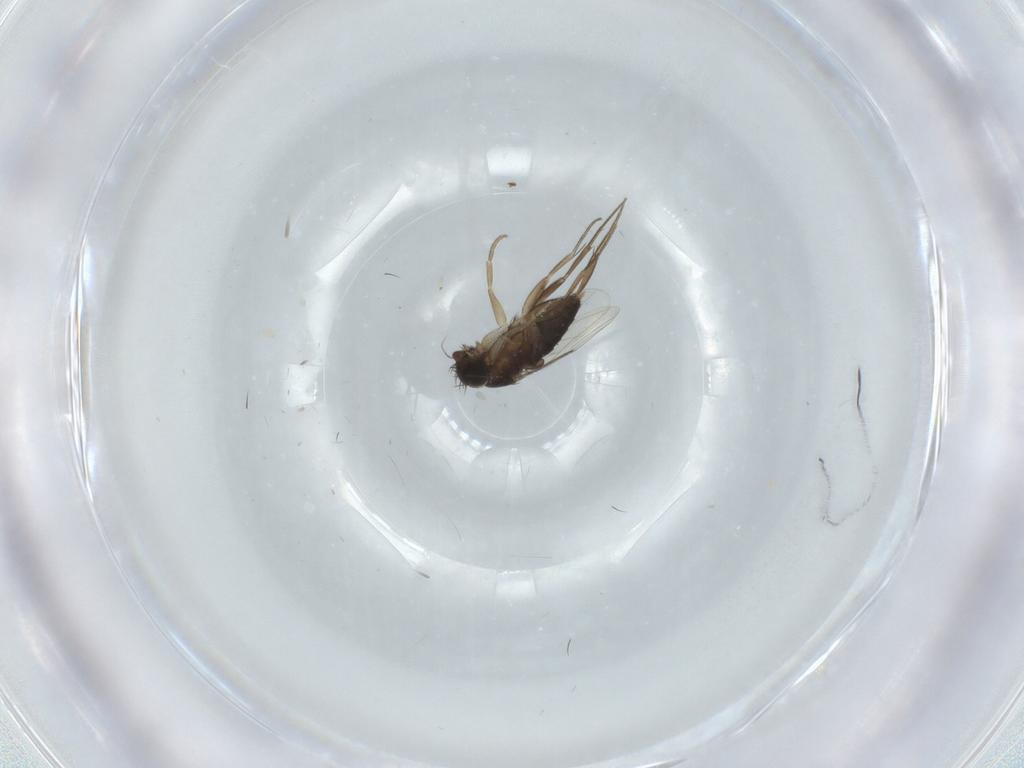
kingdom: Animalia
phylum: Arthropoda
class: Insecta
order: Diptera
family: Phoridae
